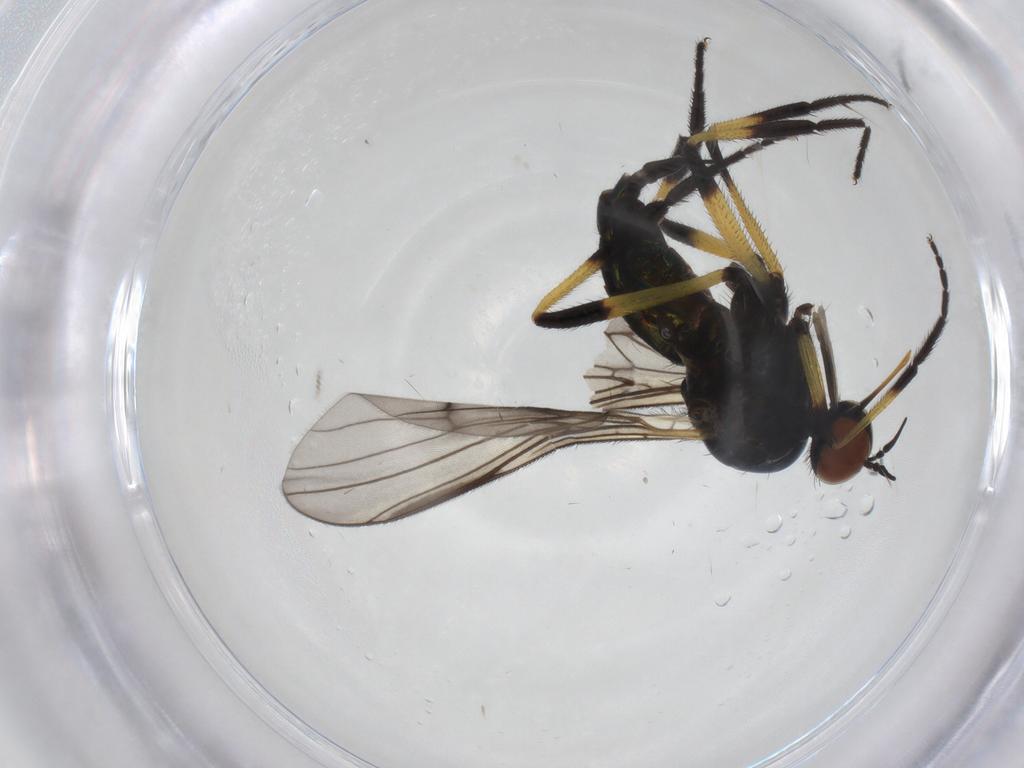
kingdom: Animalia
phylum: Arthropoda
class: Insecta
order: Diptera
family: Empididae
